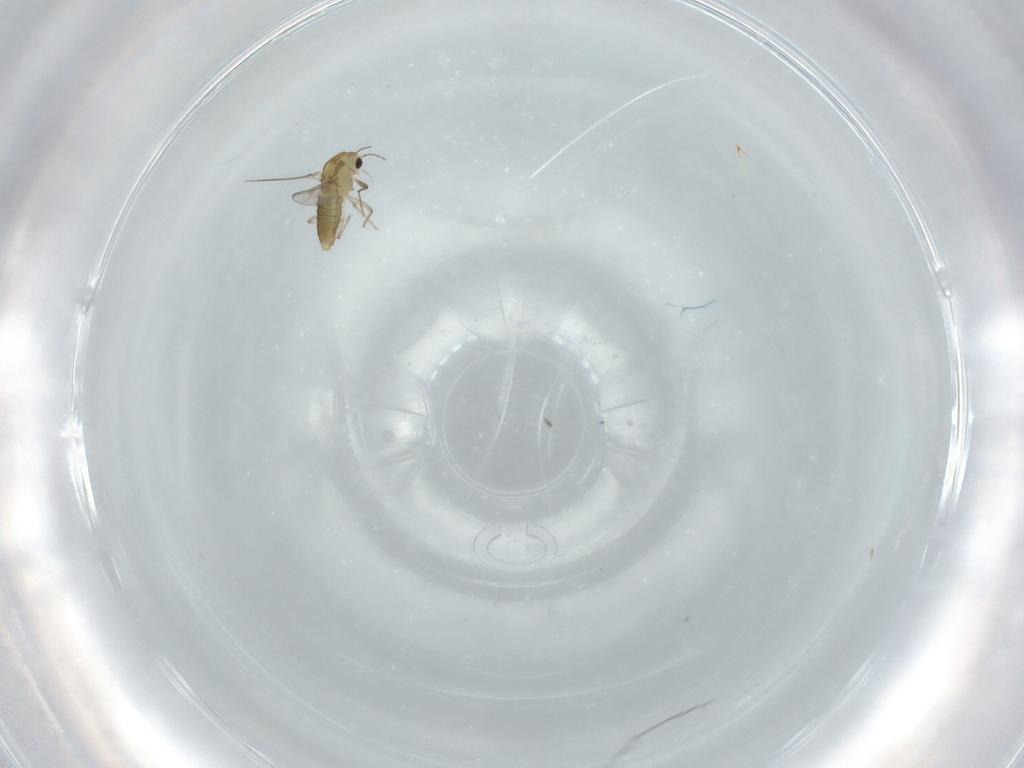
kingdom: Animalia
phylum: Arthropoda
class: Insecta
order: Diptera
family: Chironomidae
